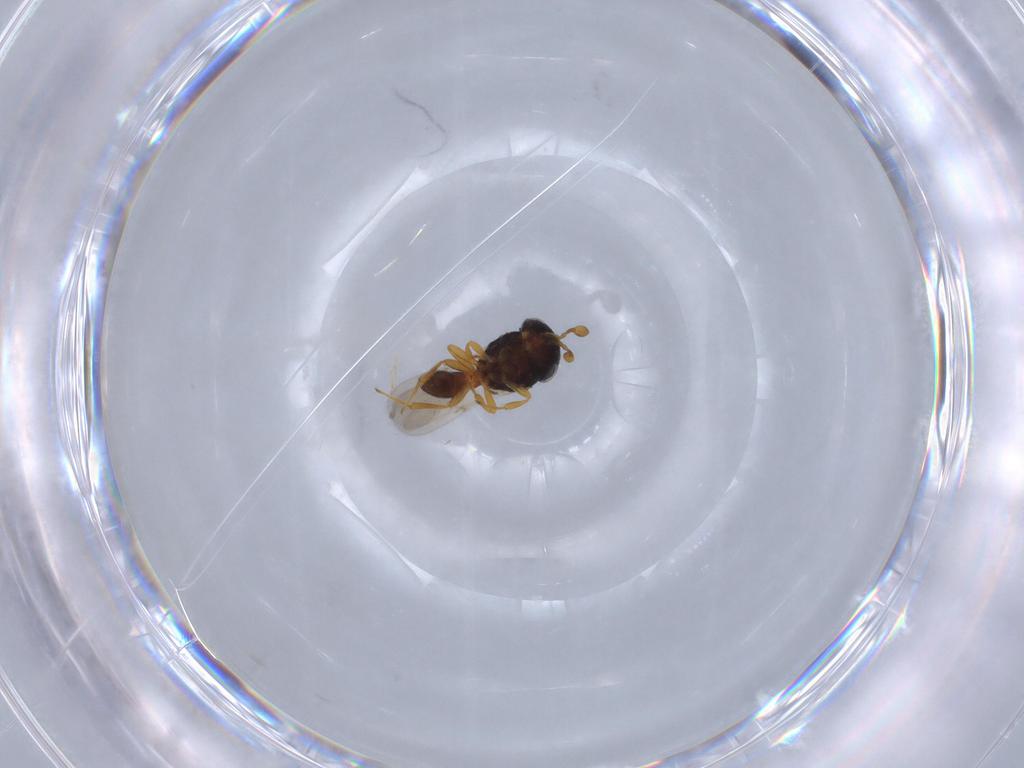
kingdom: Animalia
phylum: Arthropoda
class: Insecta
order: Hymenoptera
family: Scelionidae
